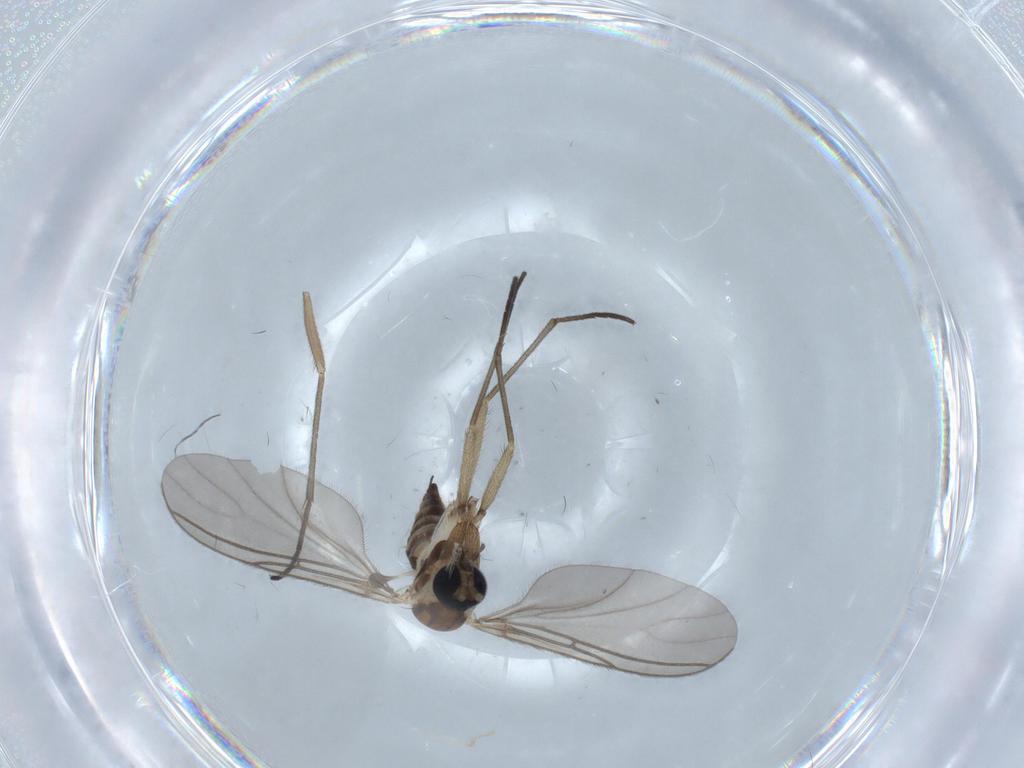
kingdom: Animalia
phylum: Arthropoda
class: Insecta
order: Diptera
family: Sciaridae
